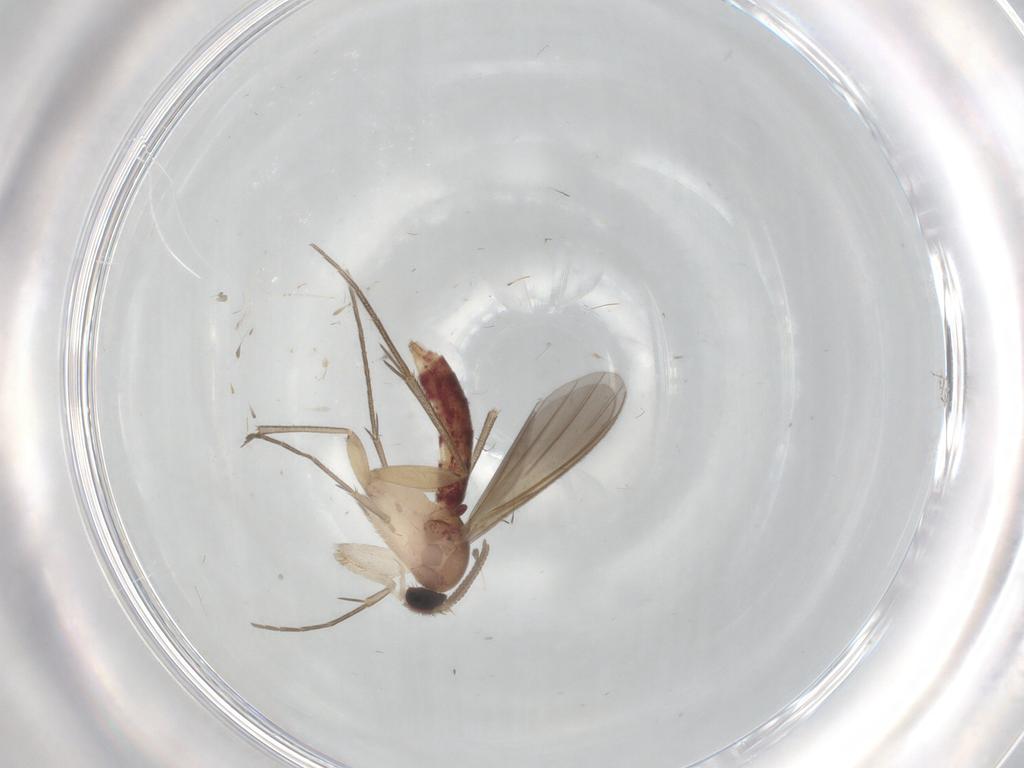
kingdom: Animalia
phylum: Arthropoda
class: Insecta
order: Diptera
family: Mycetophilidae
